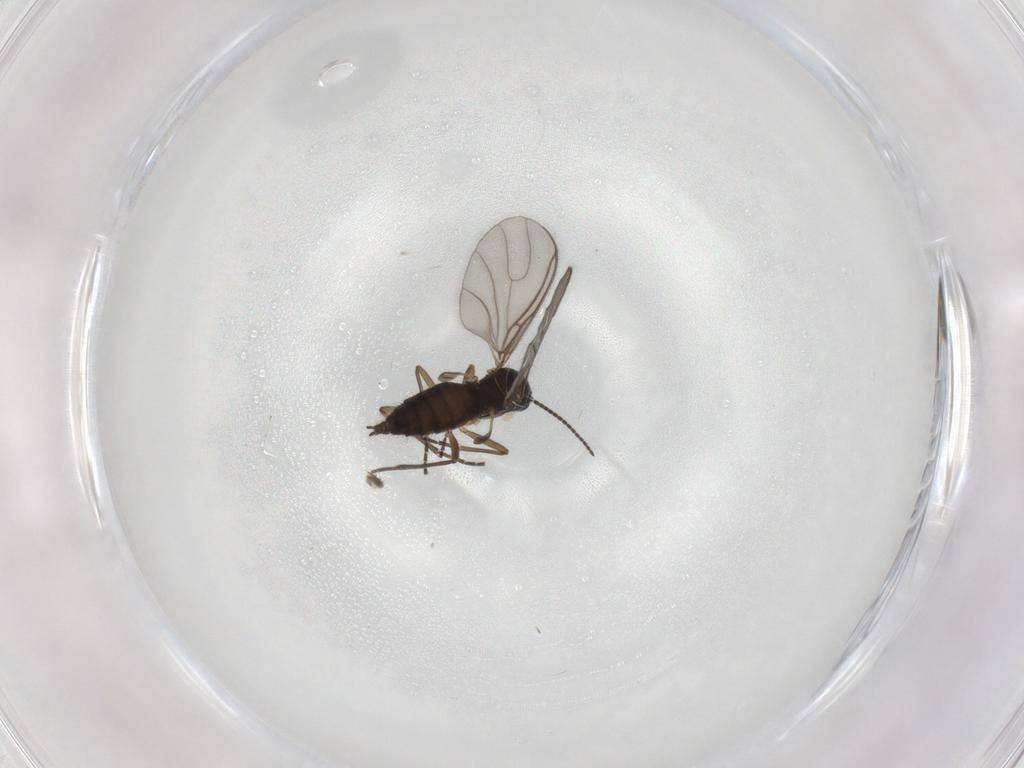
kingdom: Animalia
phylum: Arthropoda
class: Insecta
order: Diptera
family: Sciaridae
